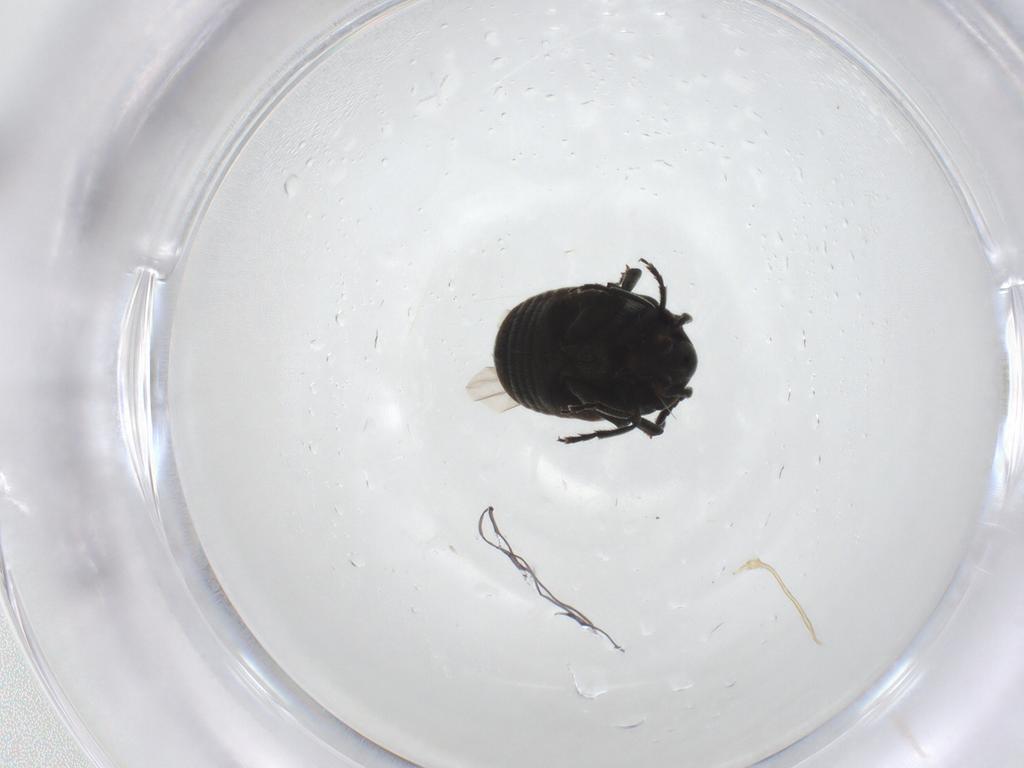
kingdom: Animalia
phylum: Arthropoda
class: Insecta
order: Coleoptera
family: Chrysomelidae
